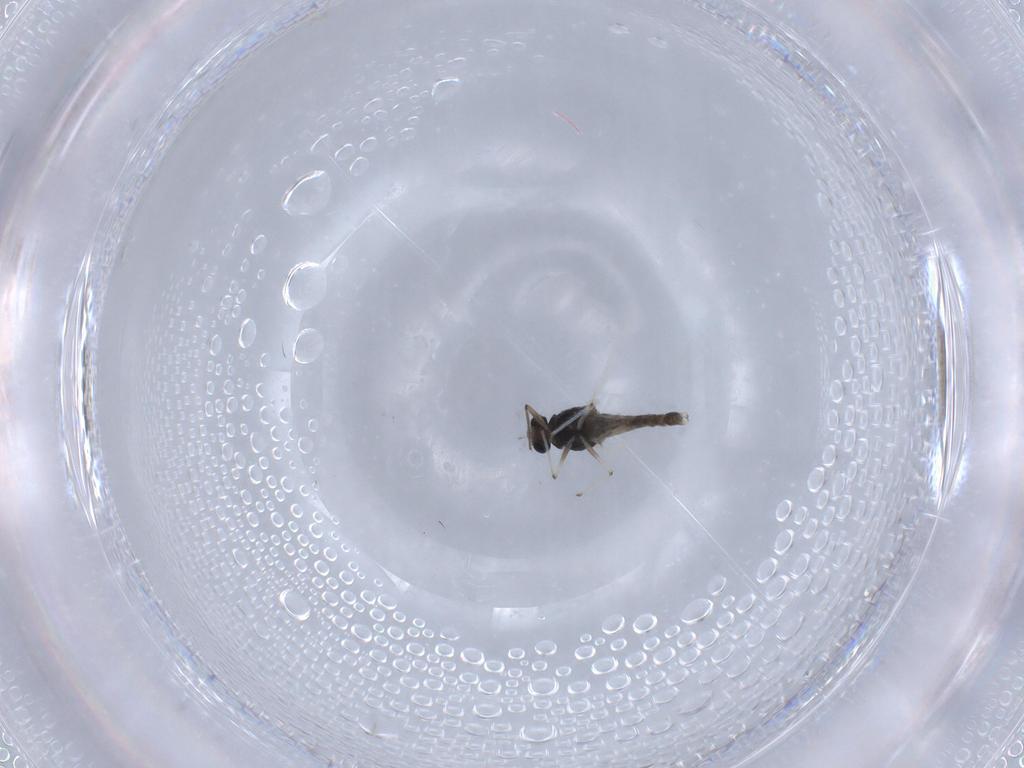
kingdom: Animalia
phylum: Arthropoda
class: Insecta
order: Diptera
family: Chironomidae
